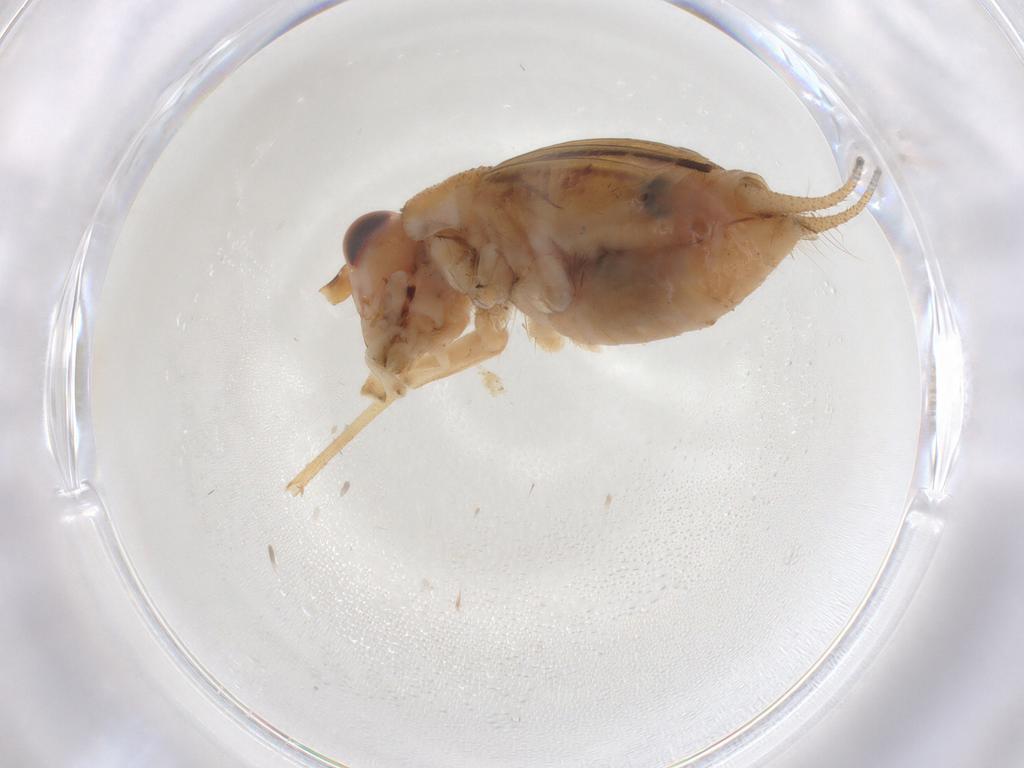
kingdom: Animalia
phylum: Arthropoda
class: Insecta
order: Orthoptera
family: Trigonidiidae
